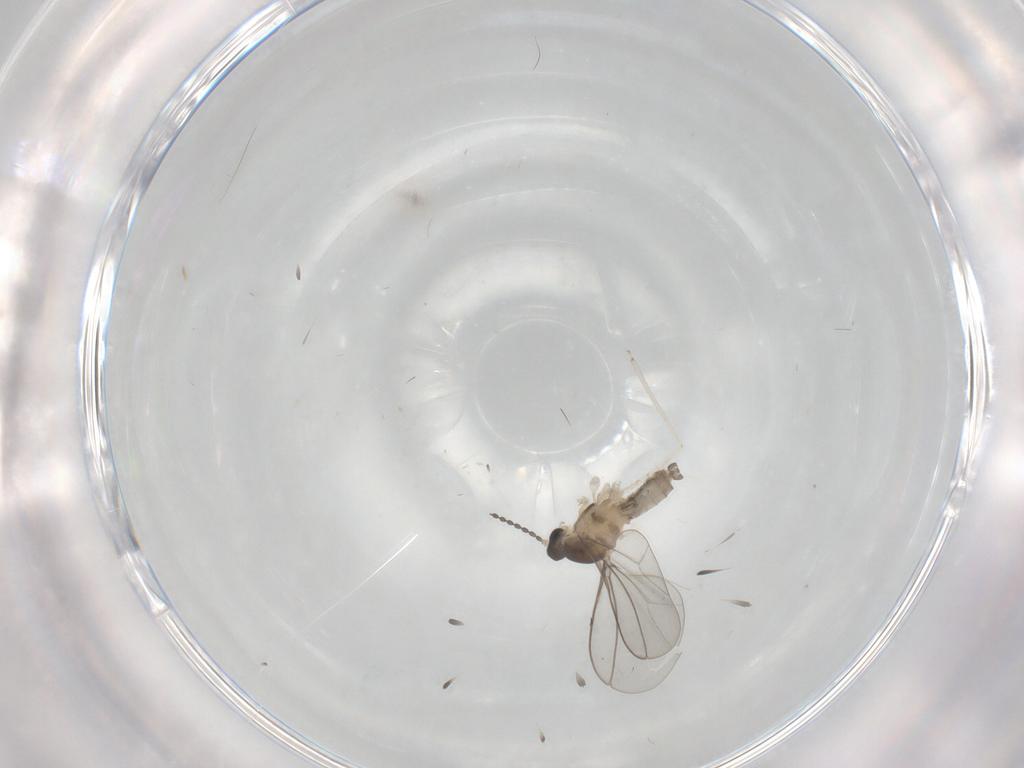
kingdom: Animalia
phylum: Arthropoda
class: Insecta
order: Diptera
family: Cecidomyiidae
